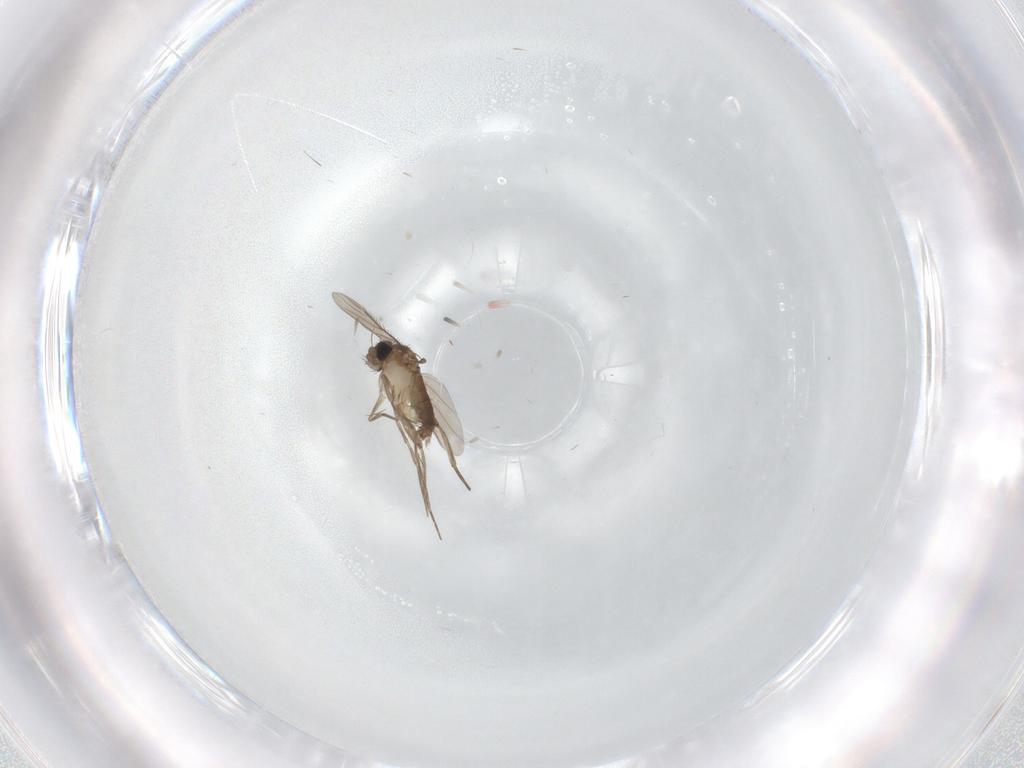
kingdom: Animalia
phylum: Arthropoda
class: Insecta
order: Diptera
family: Phoridae
